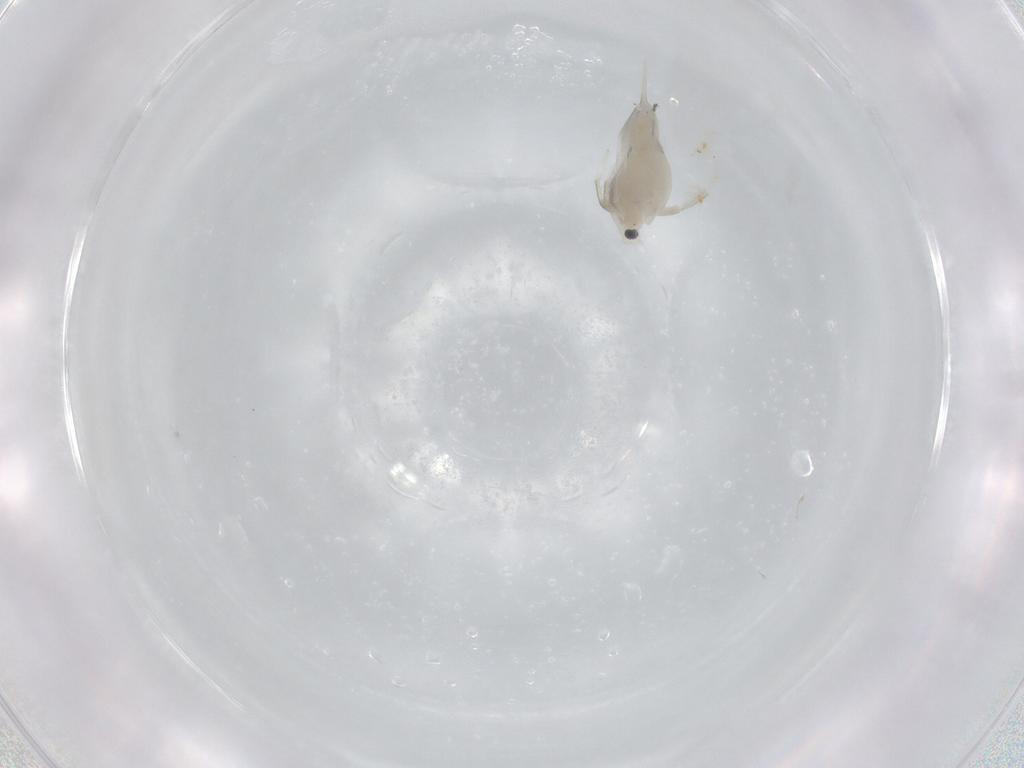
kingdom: Animalia
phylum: Arthropoda
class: Branchiopoda
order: Diplostraca
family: Daphniidae
